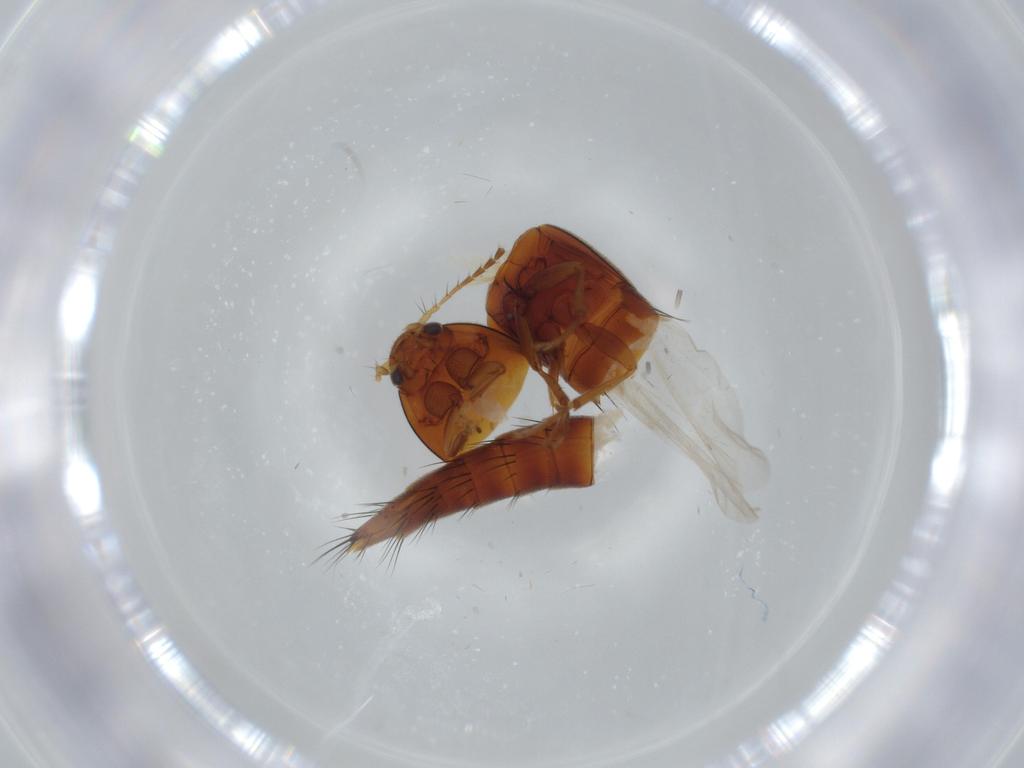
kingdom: Animalia
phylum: Arthropoda
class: Insecta
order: Coleoptera
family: Staphylinidae
